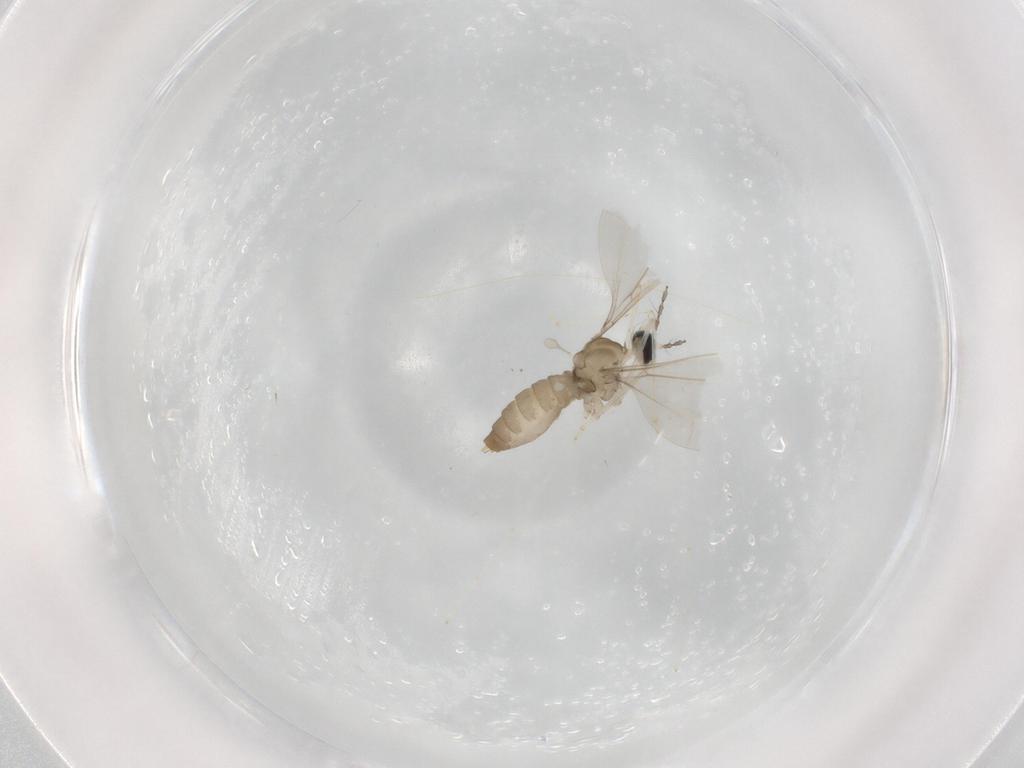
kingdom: Animalia
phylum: Arthropoda
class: Insecta
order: Diptera
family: Cecidomyiidae
